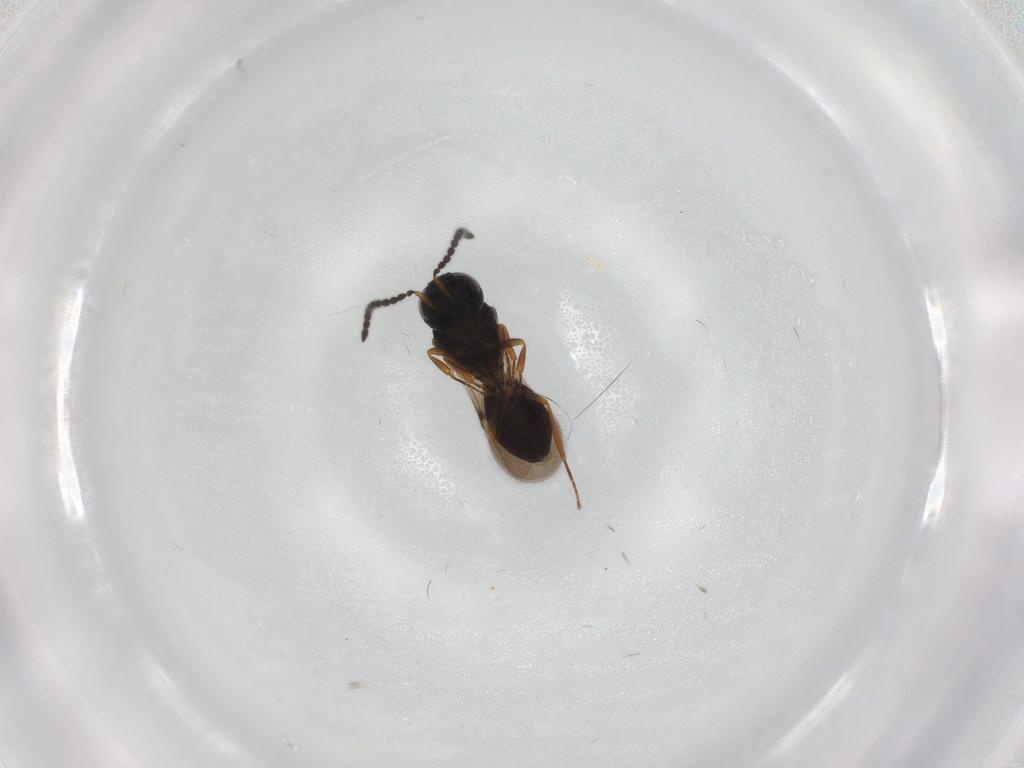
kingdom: Animalia
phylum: Arthropoda
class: Insecta
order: Hymenoptera
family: Scelionidae
